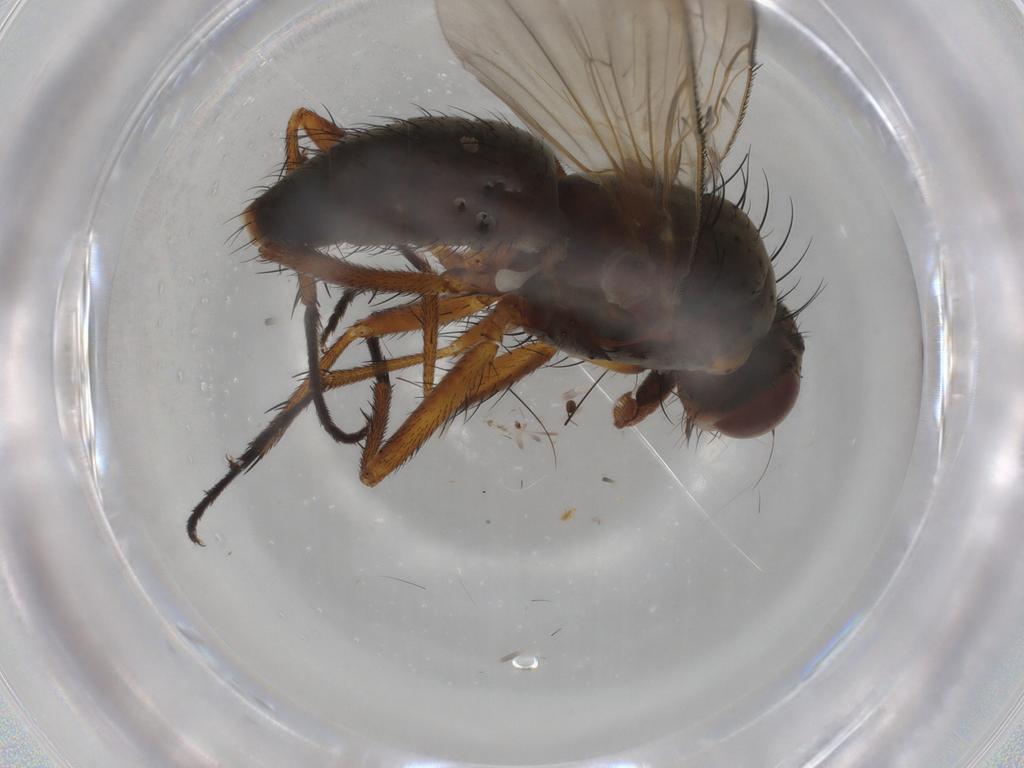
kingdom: Animalia
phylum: Arthropoda
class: Insecta
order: Diptera
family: Anthomyiidae
